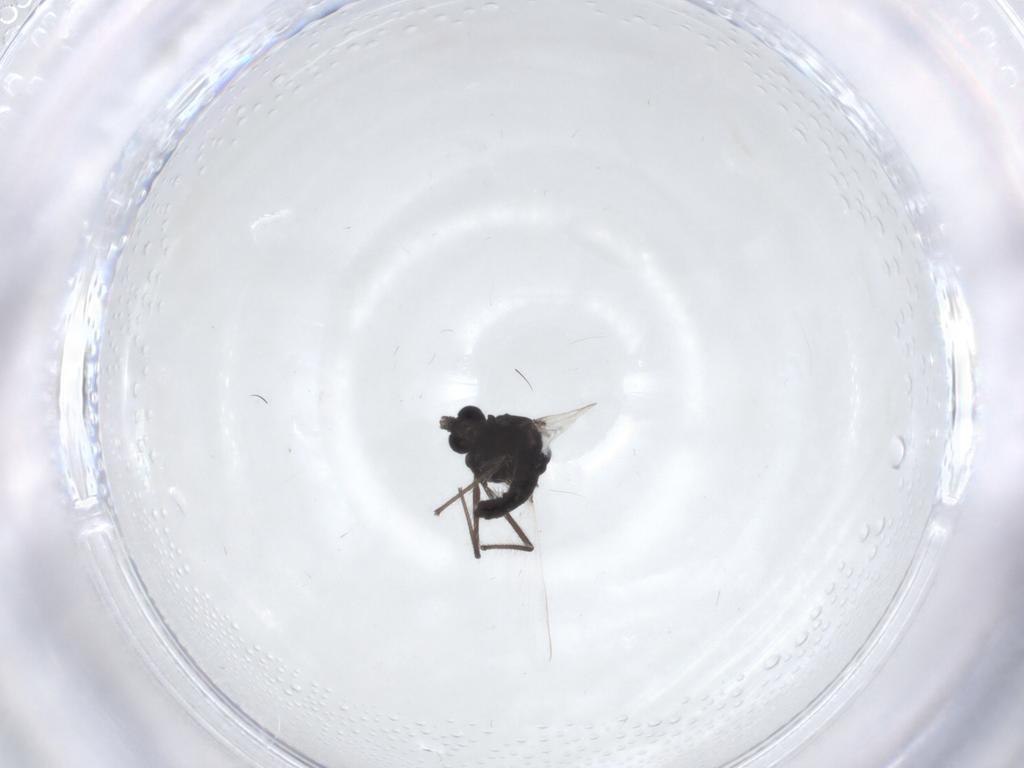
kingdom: Animalia
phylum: Arthropoda
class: Insecta
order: Diptera
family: Chironomidae
